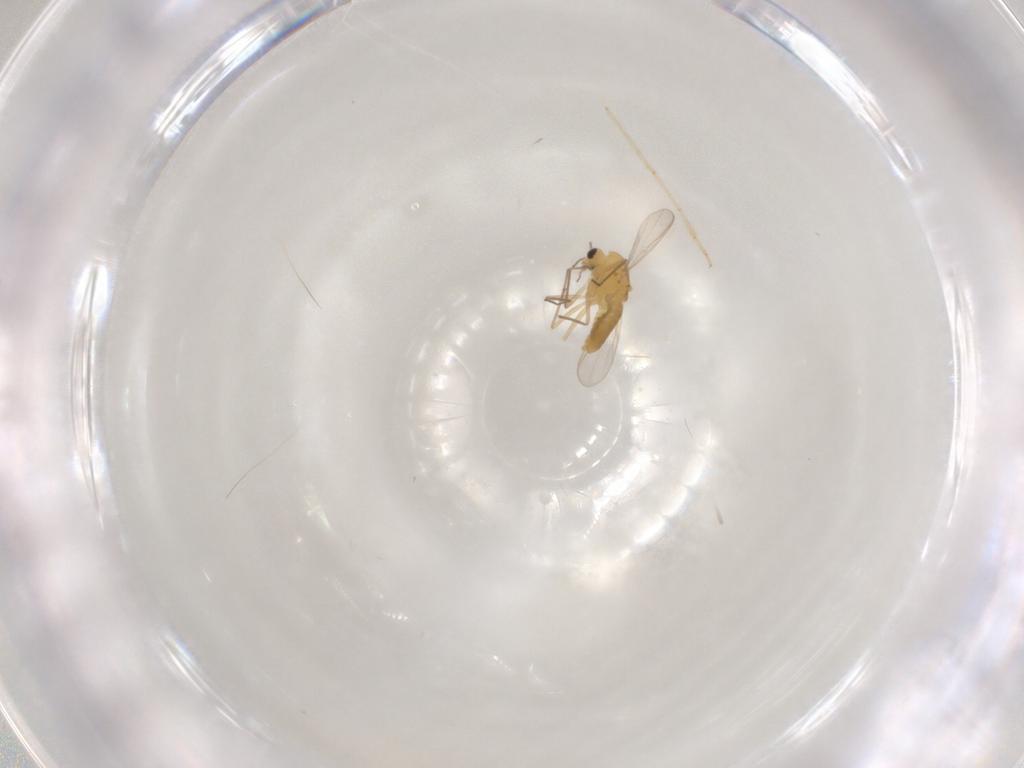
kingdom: Animalia
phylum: Arthropoda
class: Insecta
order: Diptera
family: Chironomidae
